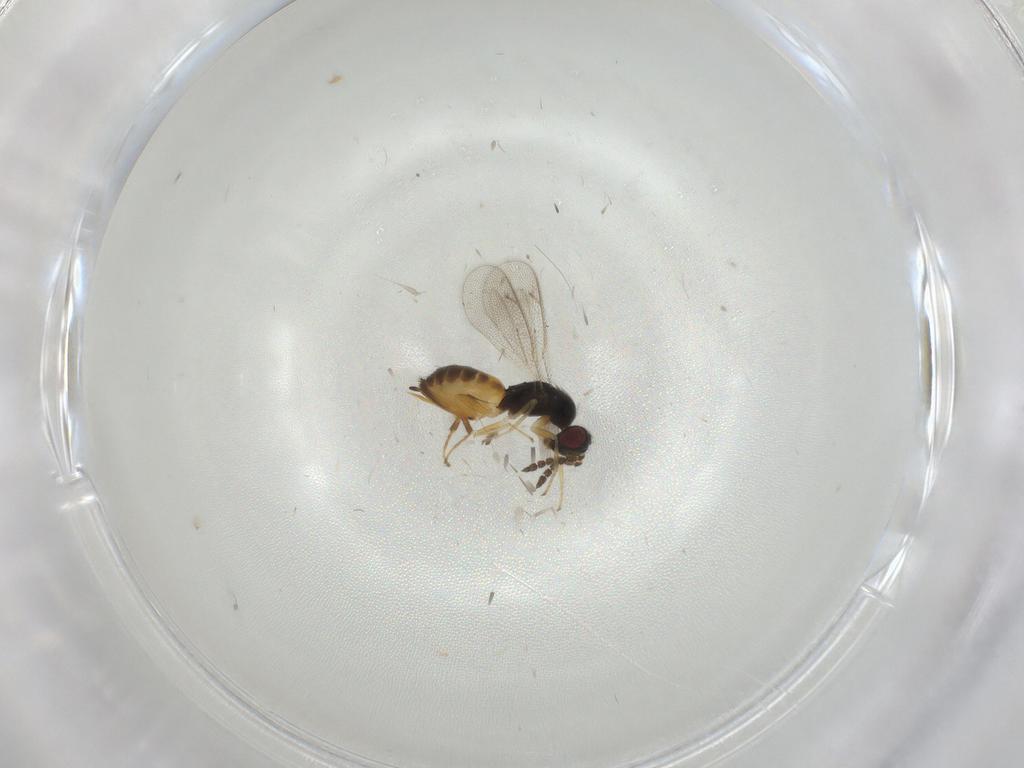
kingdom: Animalia
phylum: Arthropoda
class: Insecta
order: Hymenoptera
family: Eulophidae
